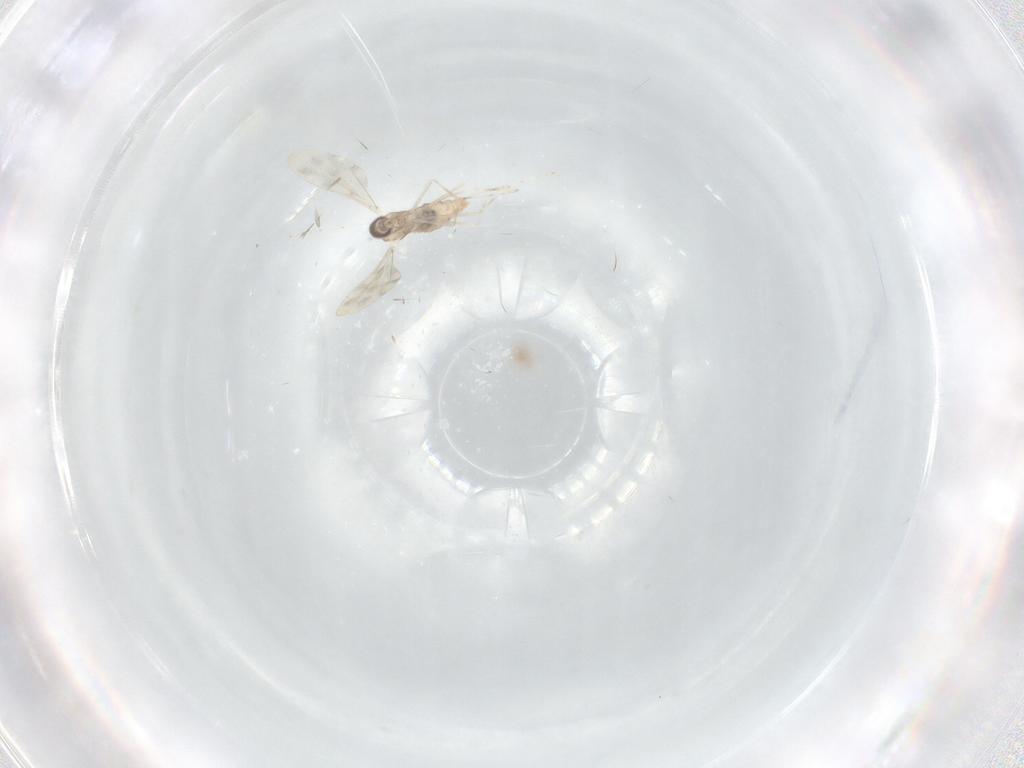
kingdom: Animalia
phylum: Arthropoda
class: Insecta
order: Diptera
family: Cecidomyiidae
